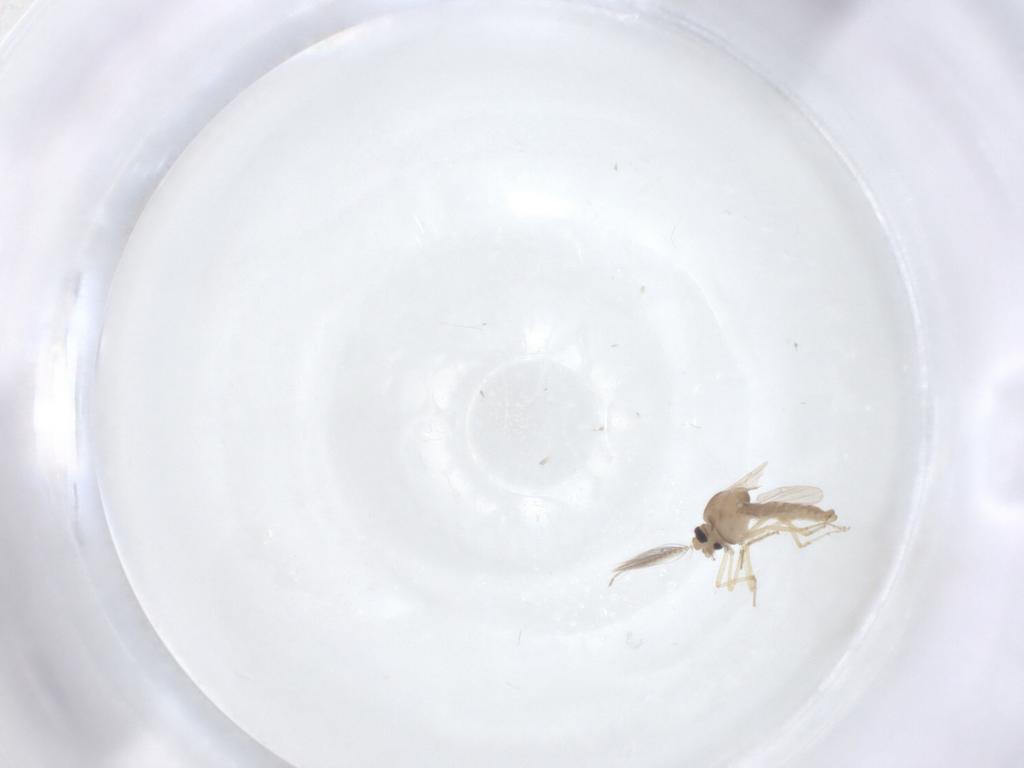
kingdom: Animalia
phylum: Arthropoda
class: Insecta
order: Diptera
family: Ceratopogonidae
